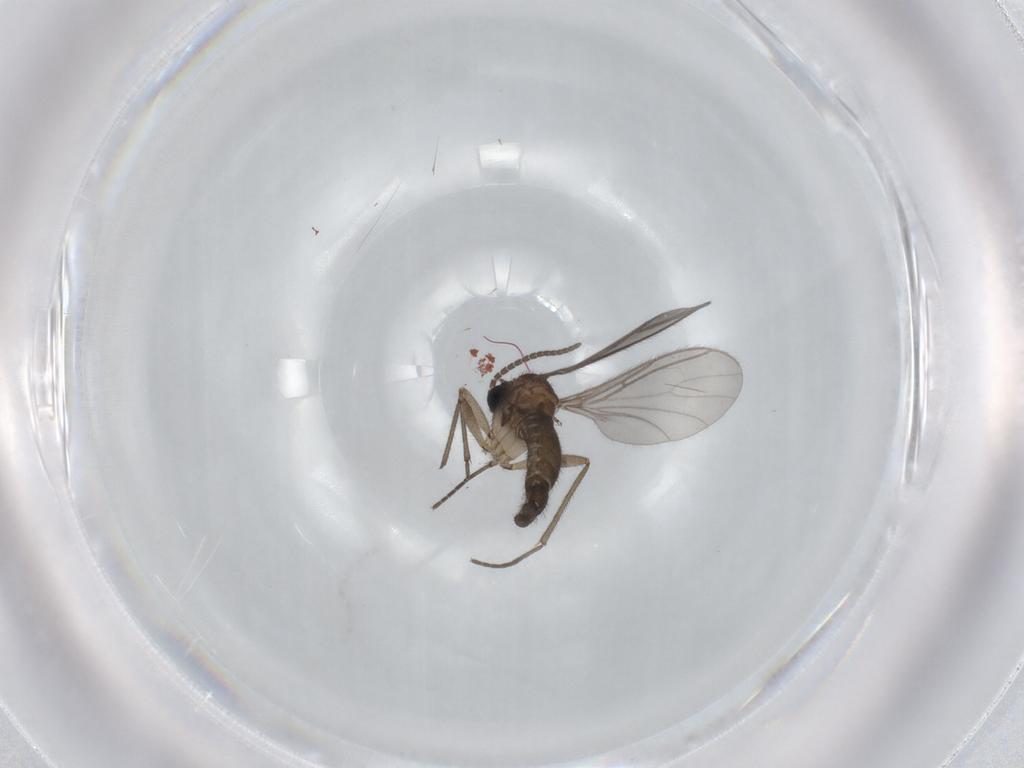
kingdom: Animalia
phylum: Arthropoda
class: Insecta
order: Diptera
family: Sciaridae
